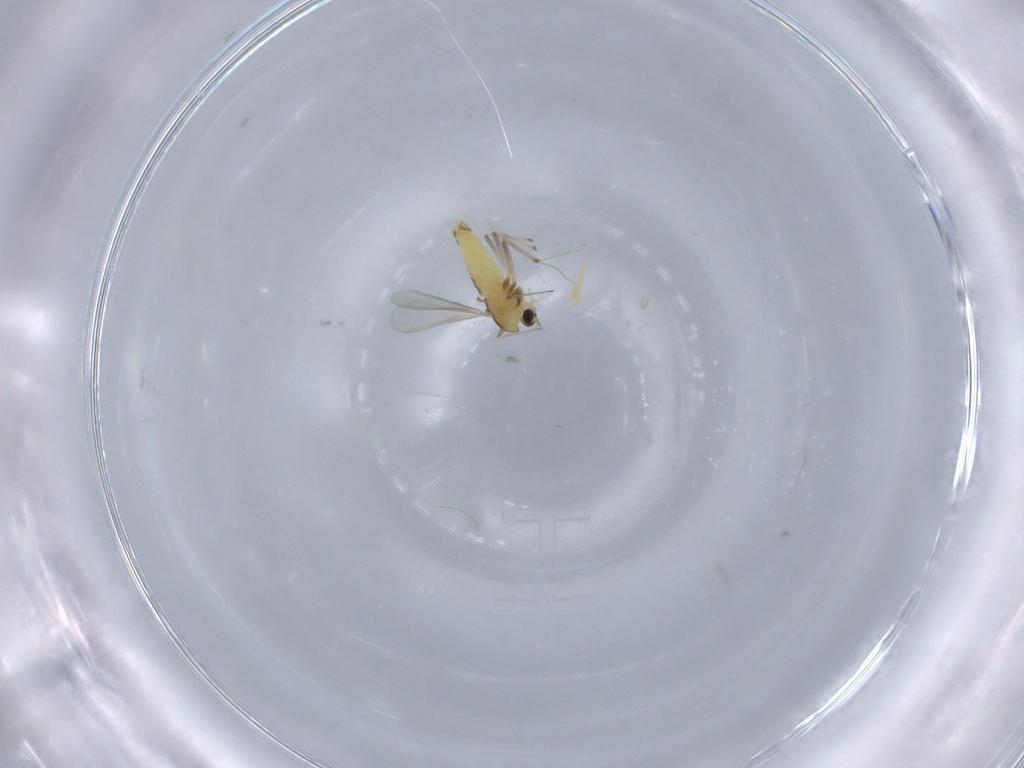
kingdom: Animalia
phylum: Arthropoda
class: Insecta
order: Diptera
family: Chironomidae
